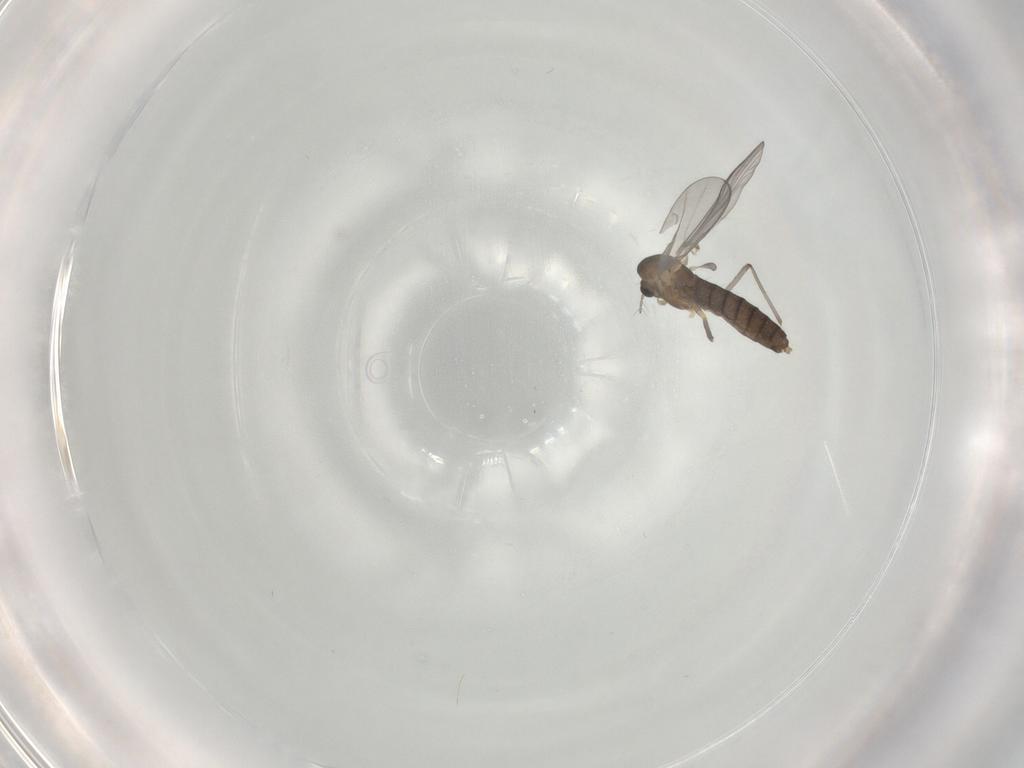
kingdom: Animalia
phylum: Arthropoda
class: Insecta
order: Diptera
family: Chironomidae
